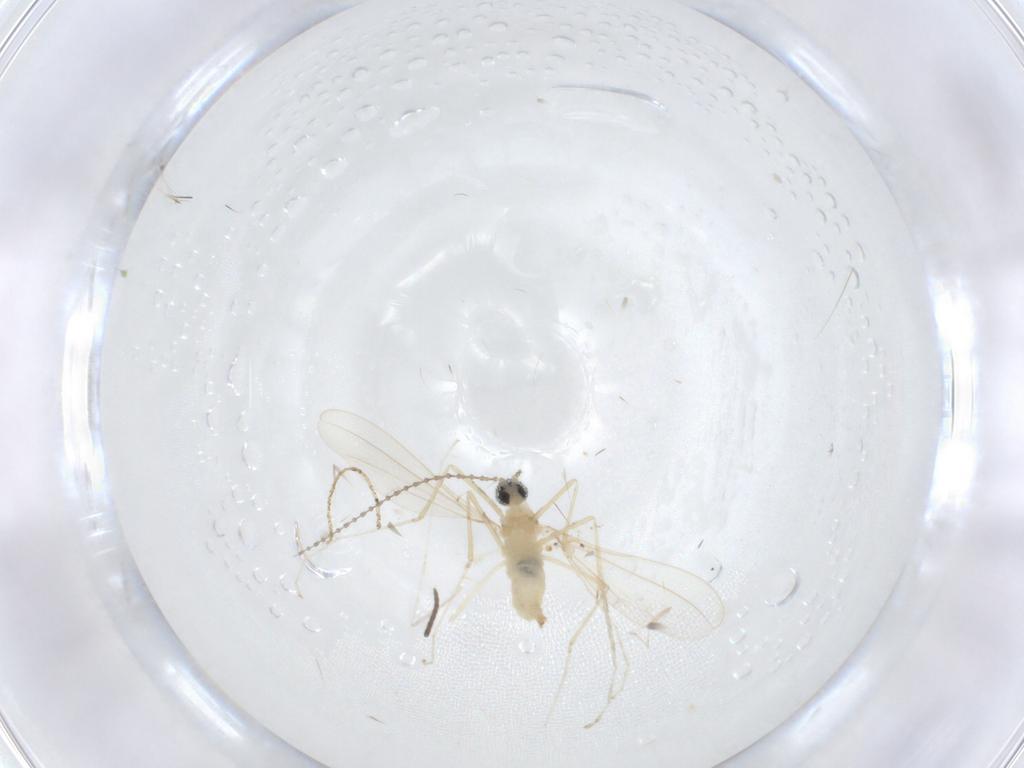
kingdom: Animalia
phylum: Arthropoda
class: Insecta
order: Diptera
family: Cecidomyiidae
